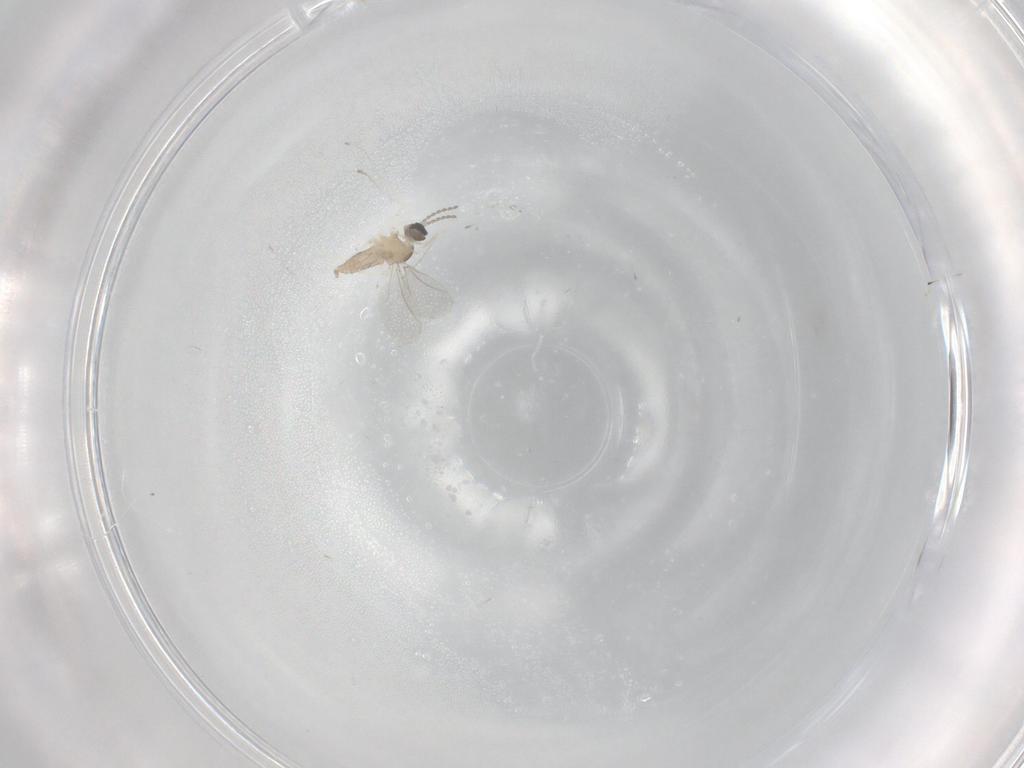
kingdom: Animalia
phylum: Arthropoda
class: Insecta
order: Diptera
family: Cecidomyiidae
